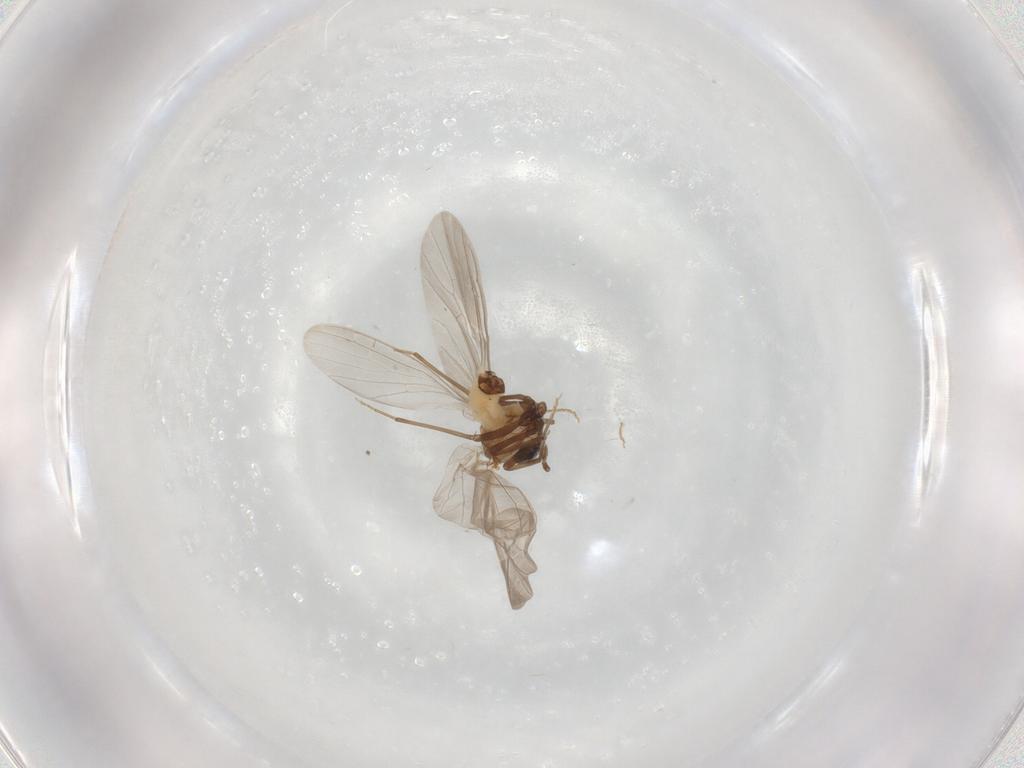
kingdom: Animalia
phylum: Arthropoda
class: Insecta
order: Neuroptera
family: Coniopterygidae
